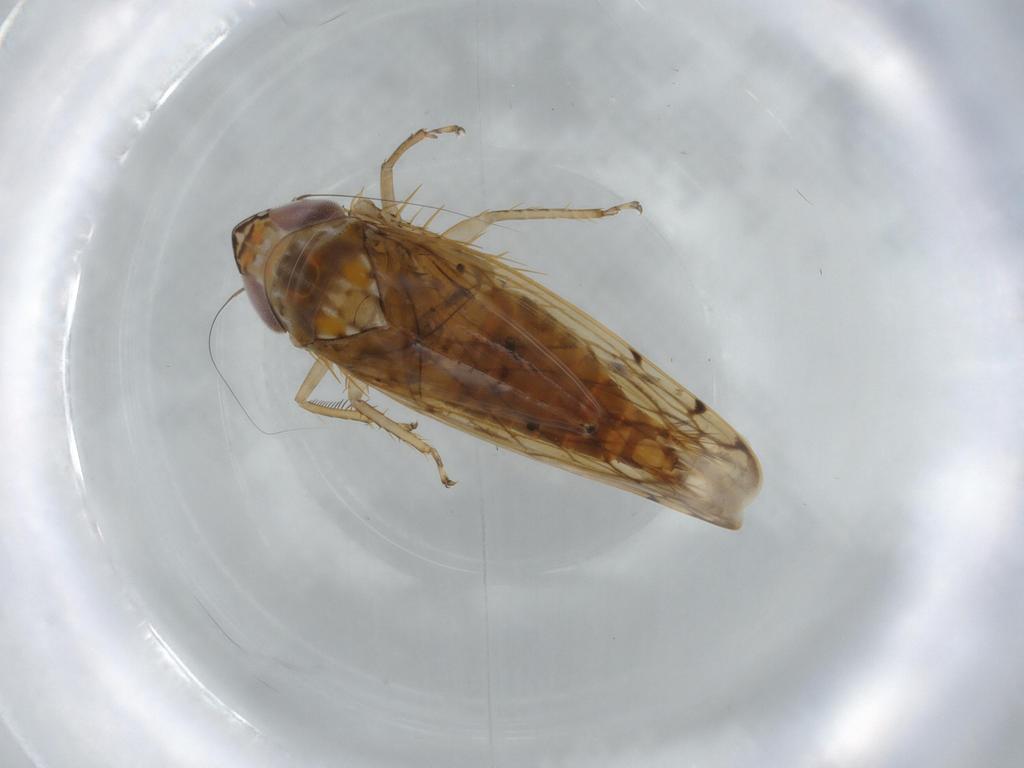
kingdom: Animalia
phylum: Arthropoda
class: Insecta
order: Hemiptera
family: Cicadellidae
